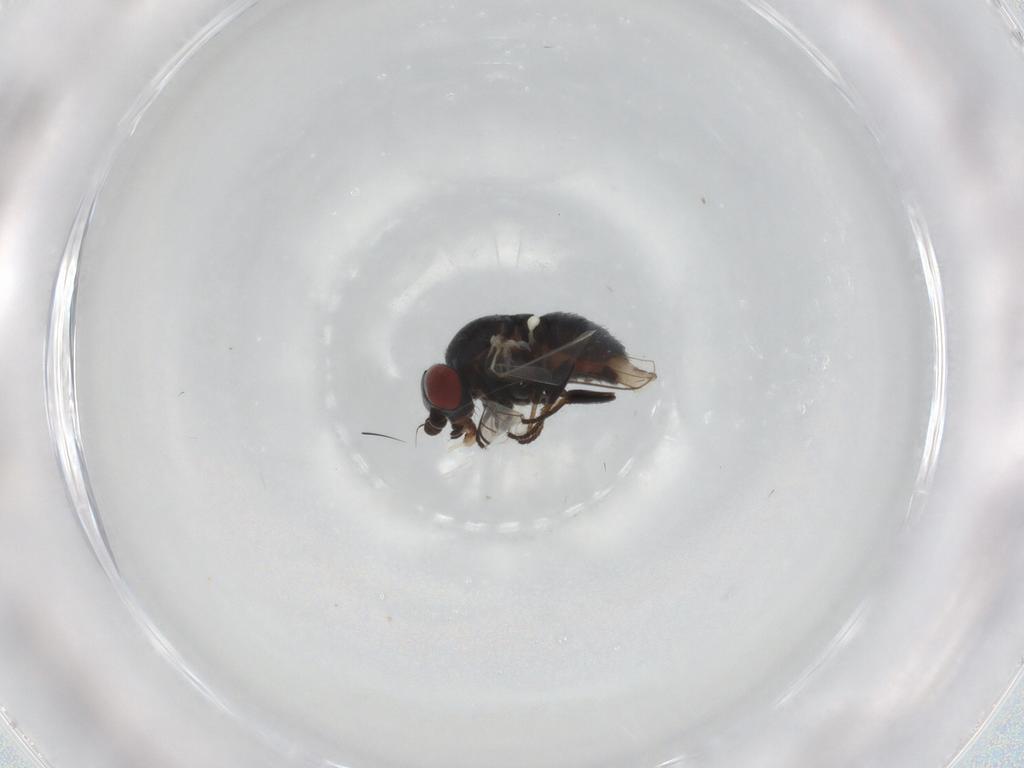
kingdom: Animalia
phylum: Arthropoda
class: Insecta
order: Diptera
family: Chamaemyiidae
